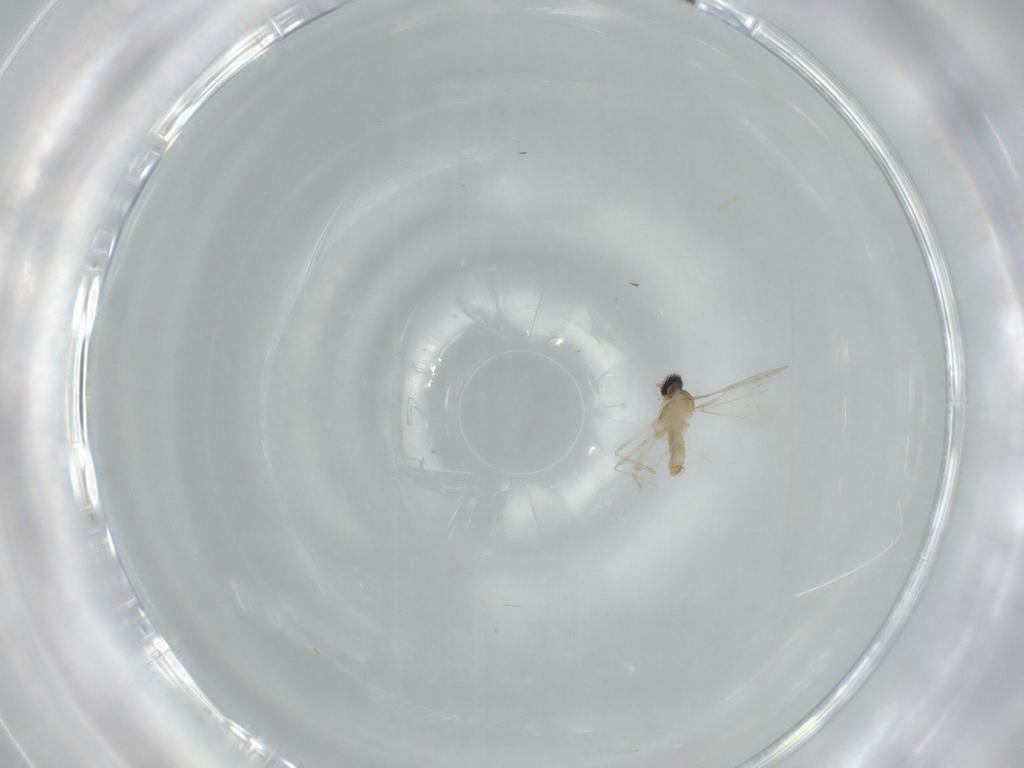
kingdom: Animalia
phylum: Arthropoda
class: Insecta
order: Diptera
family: Cecidomyiidae
